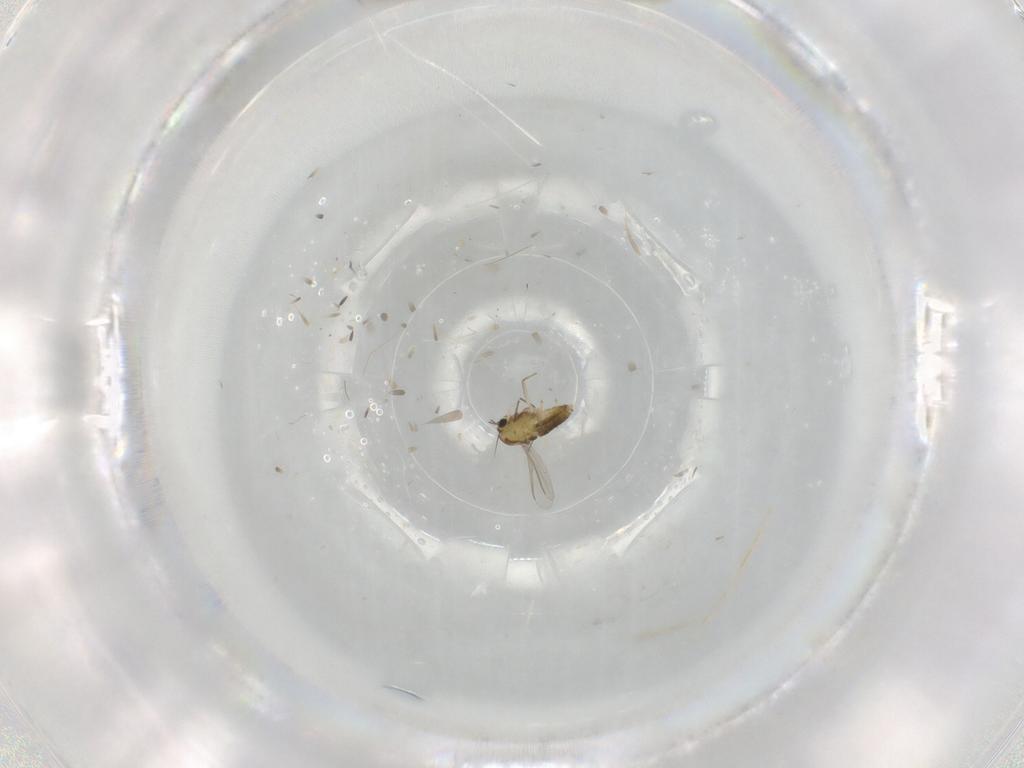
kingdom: Animalia
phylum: Arthropoda
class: Insecta
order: Diptera
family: Chironomidae
